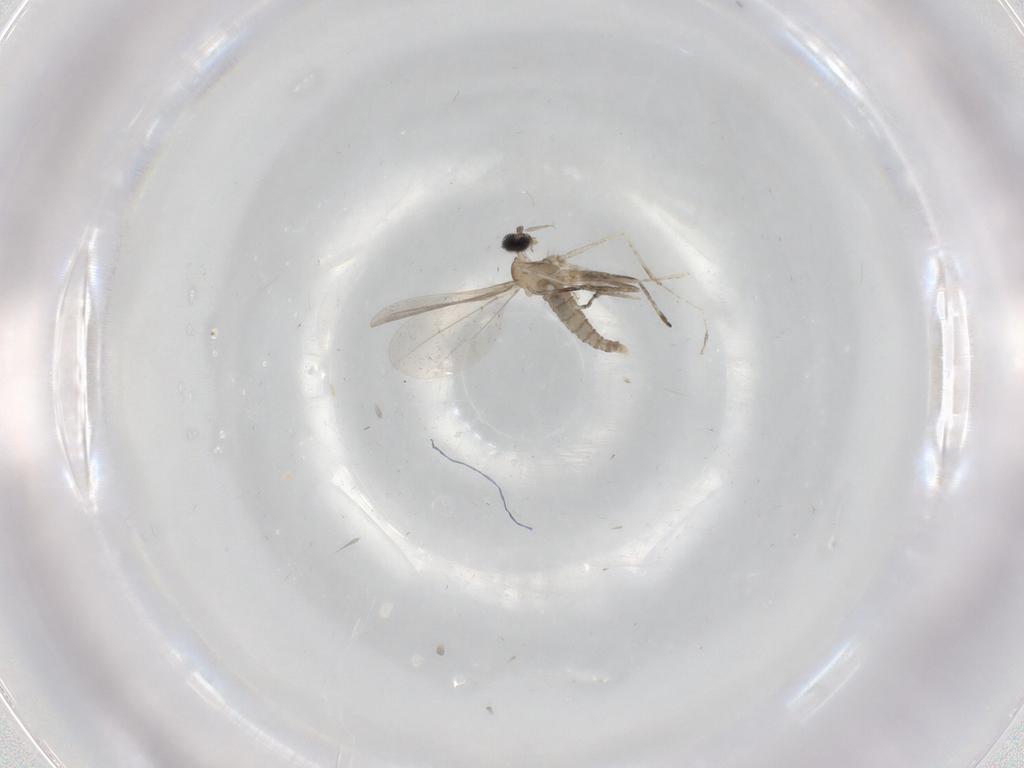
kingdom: Animalia
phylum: Arthropoda
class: Insecta
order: Diptera
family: Cecidomyiidae
